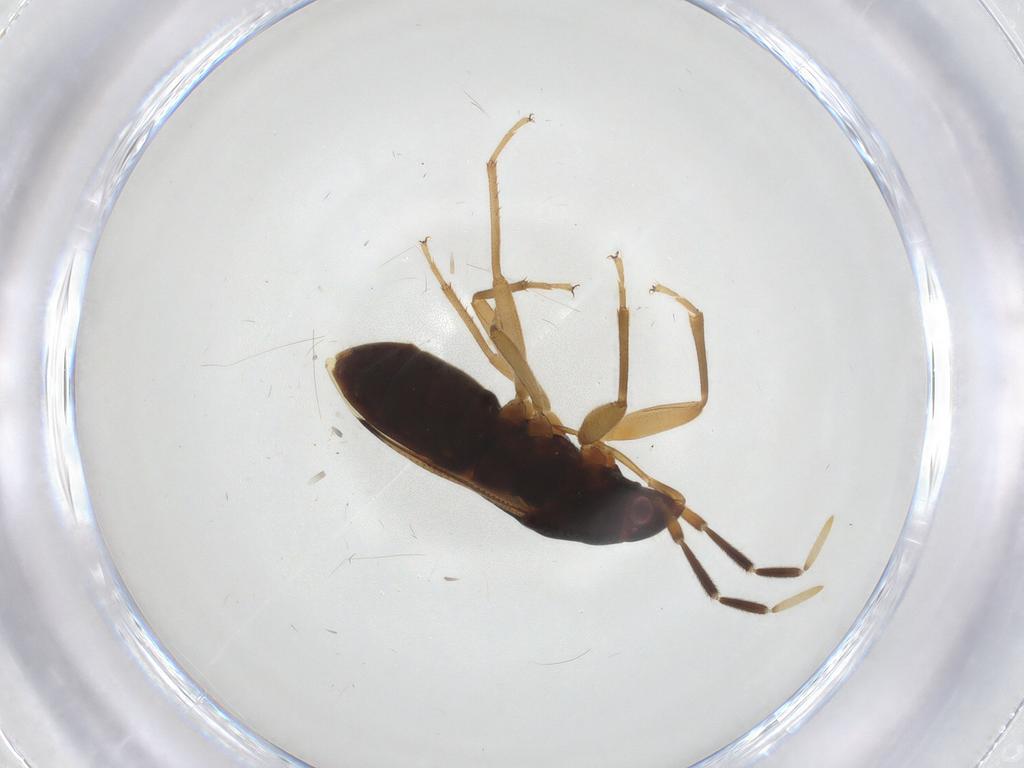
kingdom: Animalia
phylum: Arthropoda
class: Insecta
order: Hemiptera
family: Rhyparochromidae
